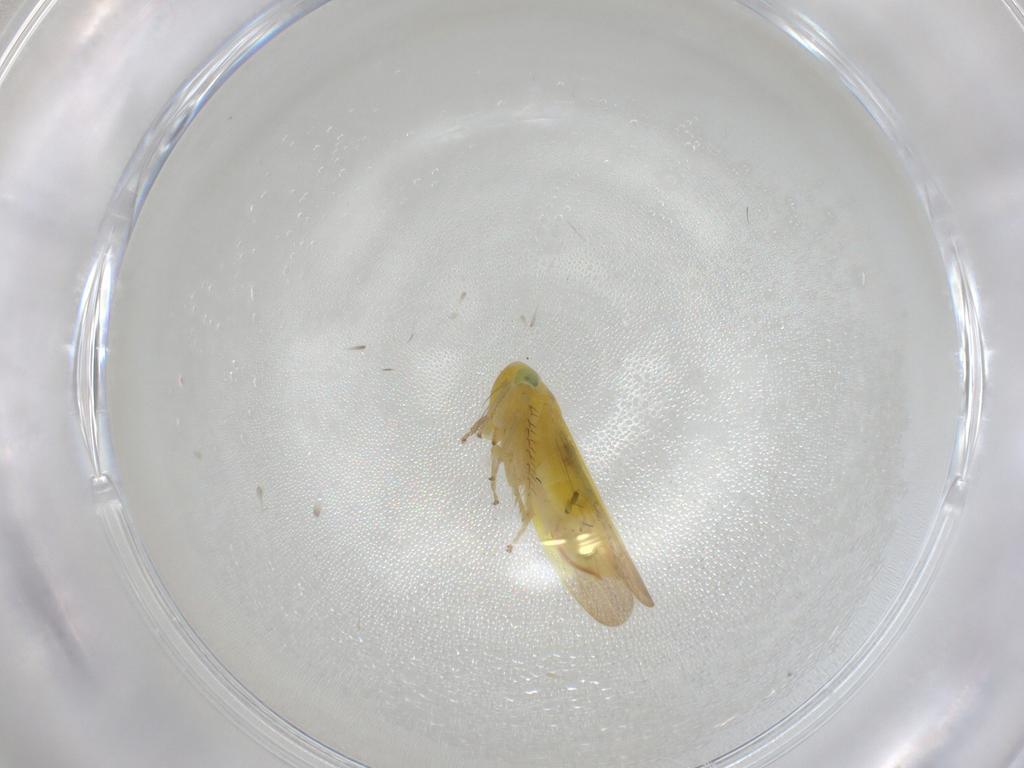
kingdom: Animalia
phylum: Arthropoda
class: Insecta
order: Hemiptera
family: Cicadellidae
